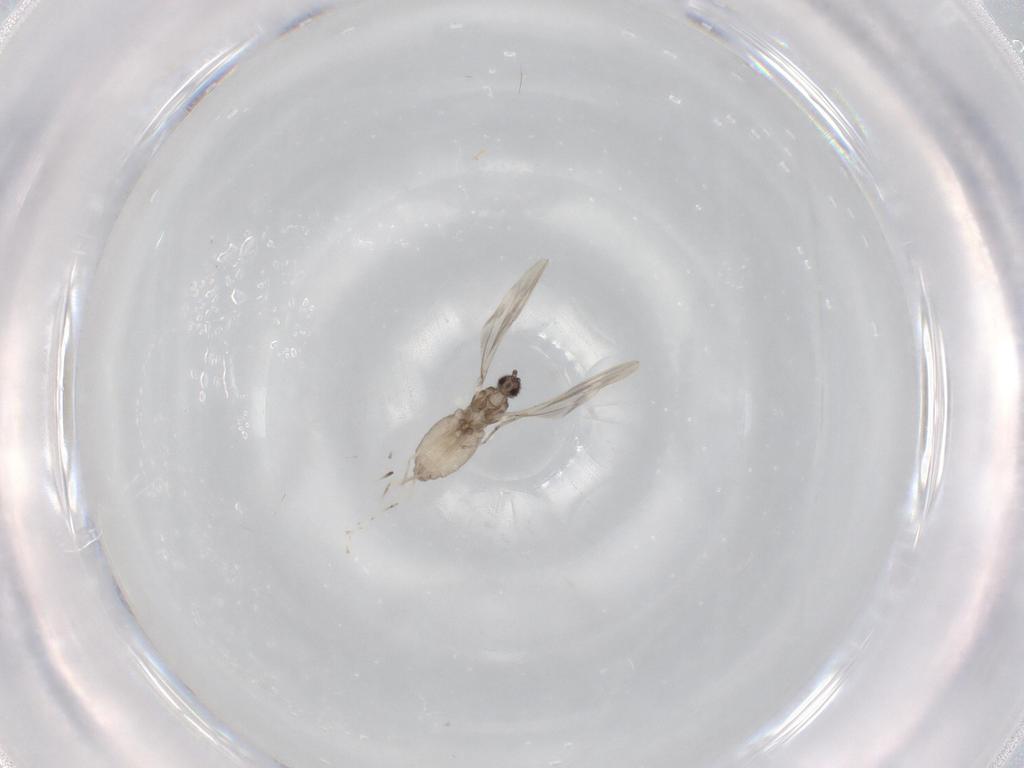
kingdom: Animalia
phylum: Arthropoda
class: Insecta
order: Diptera
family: Cecidomyiidae
